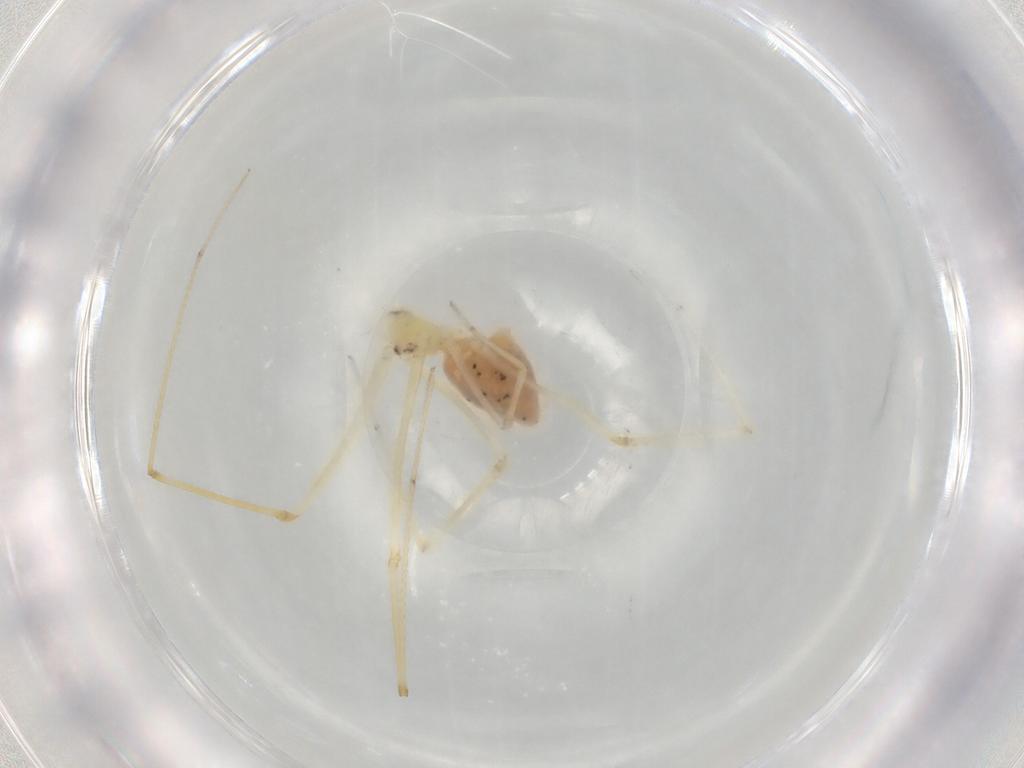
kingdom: Animalia
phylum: Arthropoda
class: Arachnida
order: Araneae
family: Pholcidae
